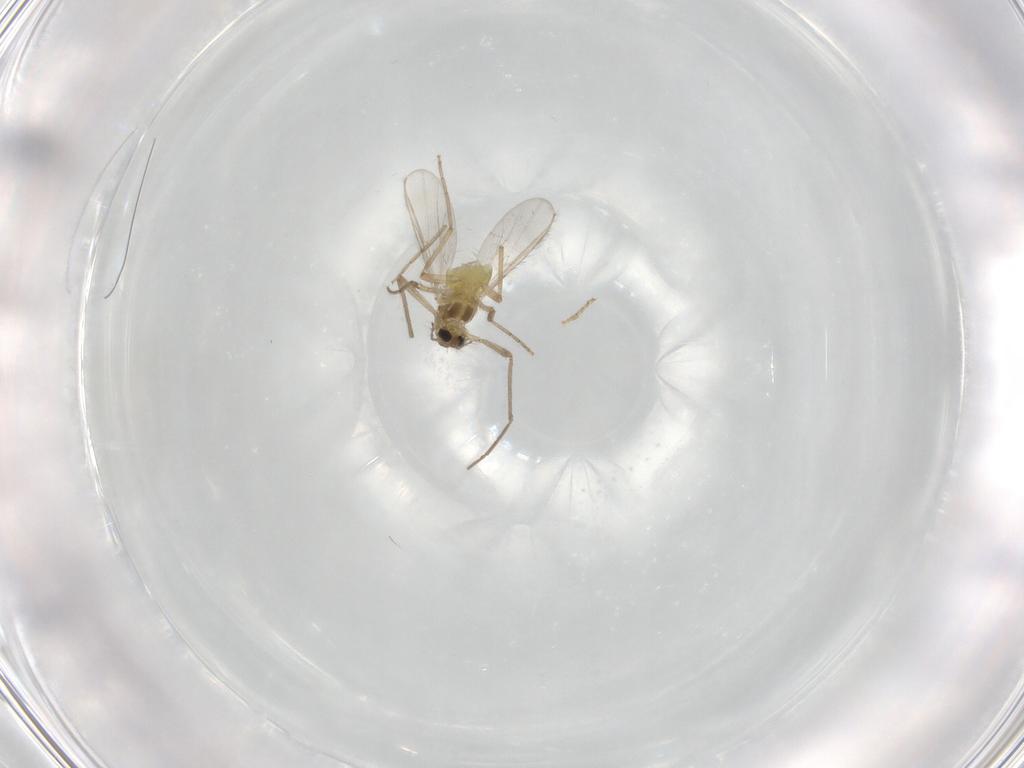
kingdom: Animalia
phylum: Arthropoda
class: Insecta
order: Diptera
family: Chironomidae
